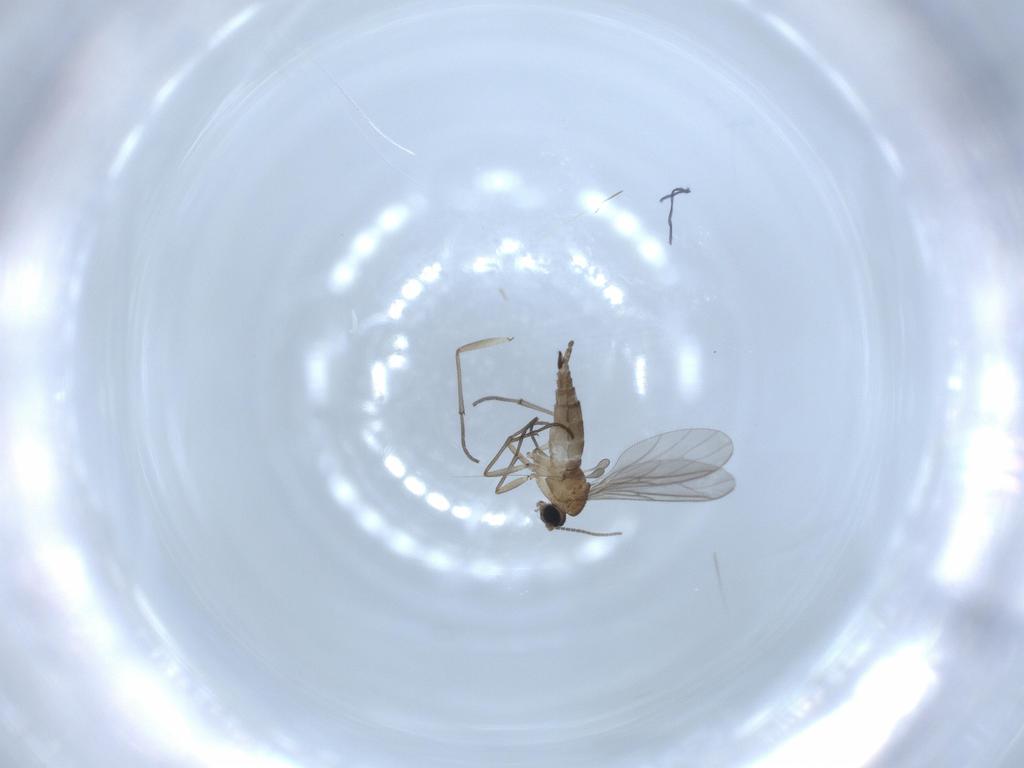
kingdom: Animalia
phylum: Arthropoda
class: Insecta
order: Diptera
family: Sciaridae
